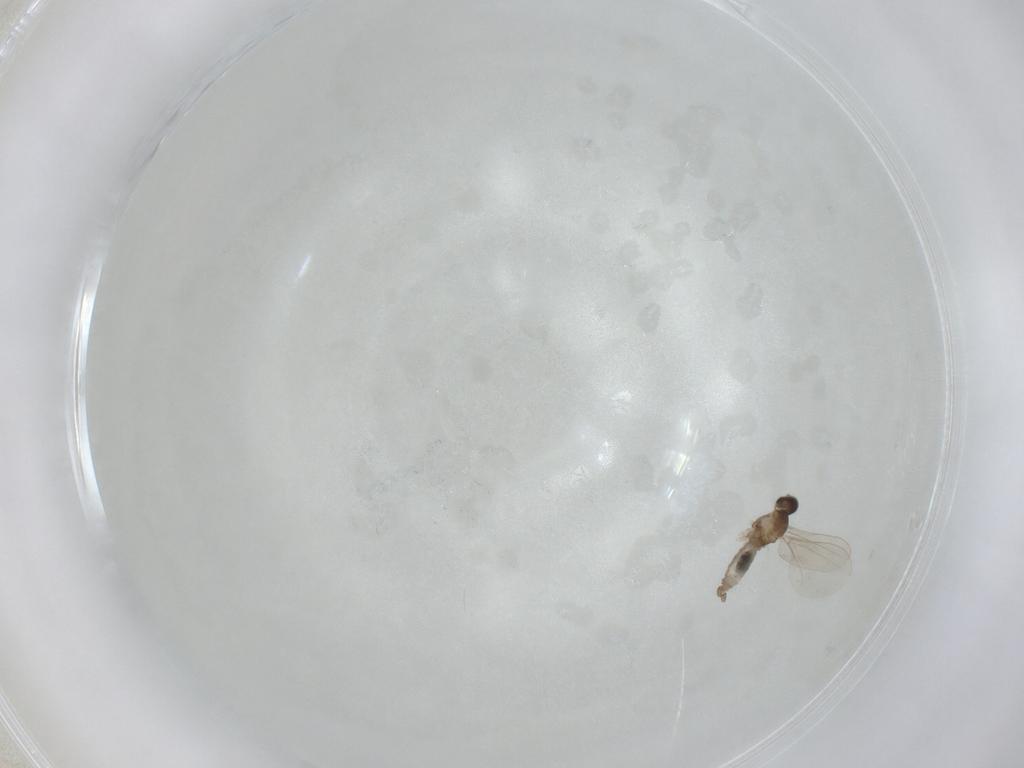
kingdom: Animalia
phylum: Arthropoda
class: Insecta
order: Diptera
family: Cecidomyiidae
